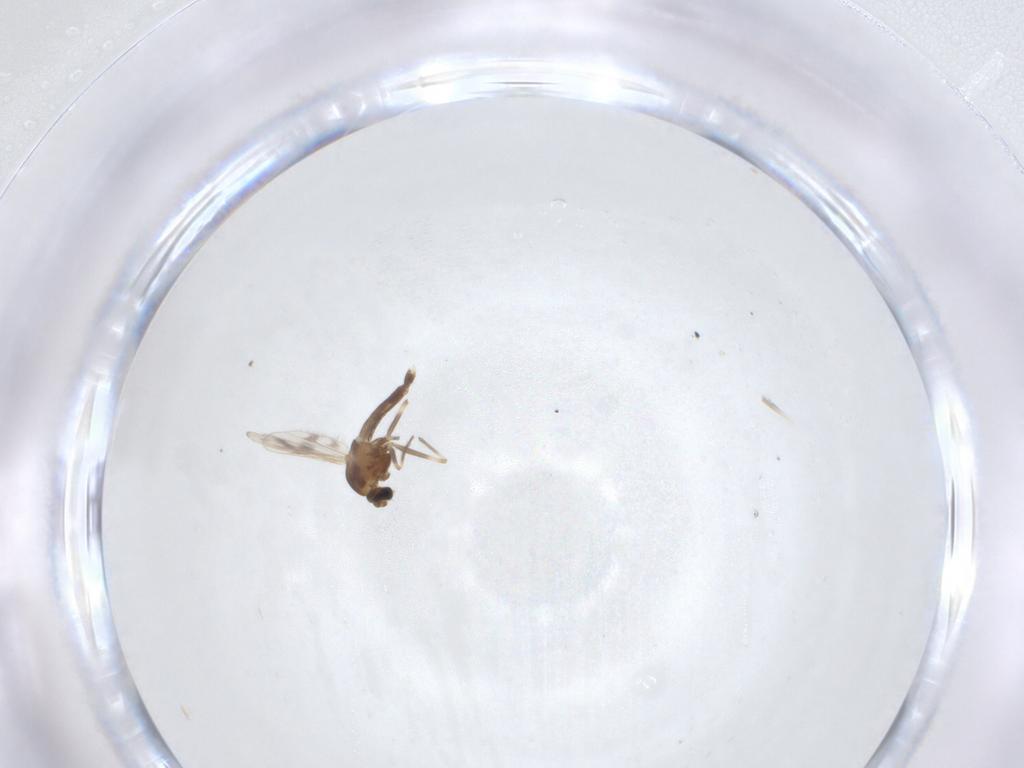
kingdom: Animalia
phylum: Arthropoda
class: Insecta
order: Diptera
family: Chironomidae
